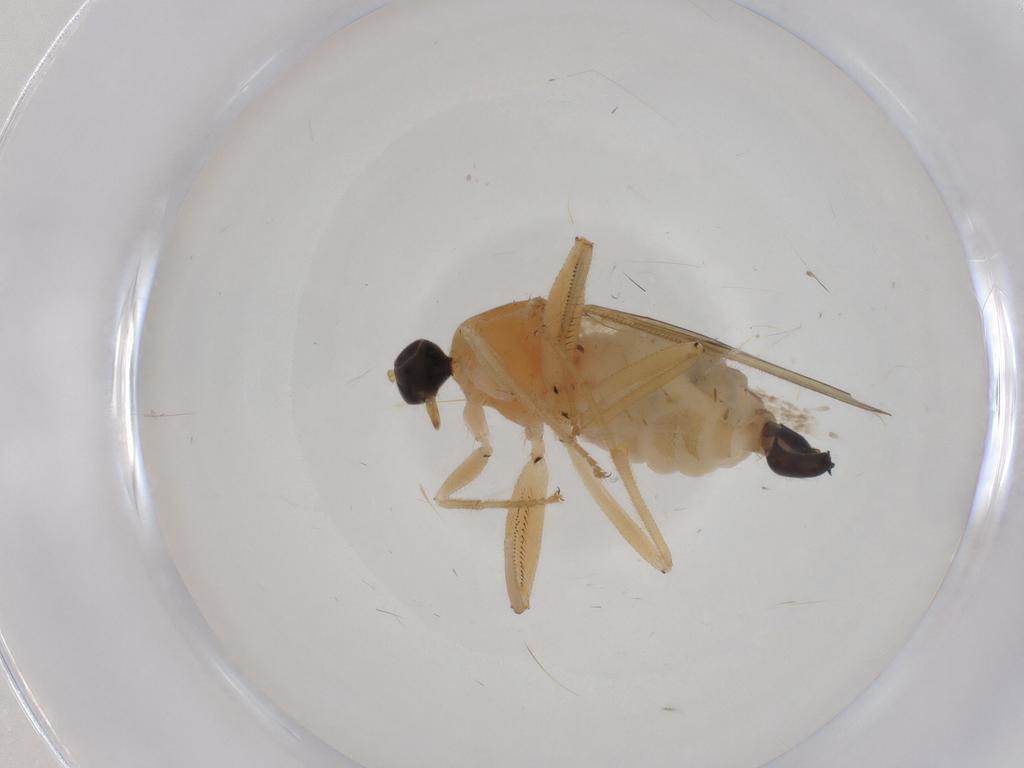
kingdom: Animalia
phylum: Arthropoda
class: Insecta
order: Diptera
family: Hybotidae
